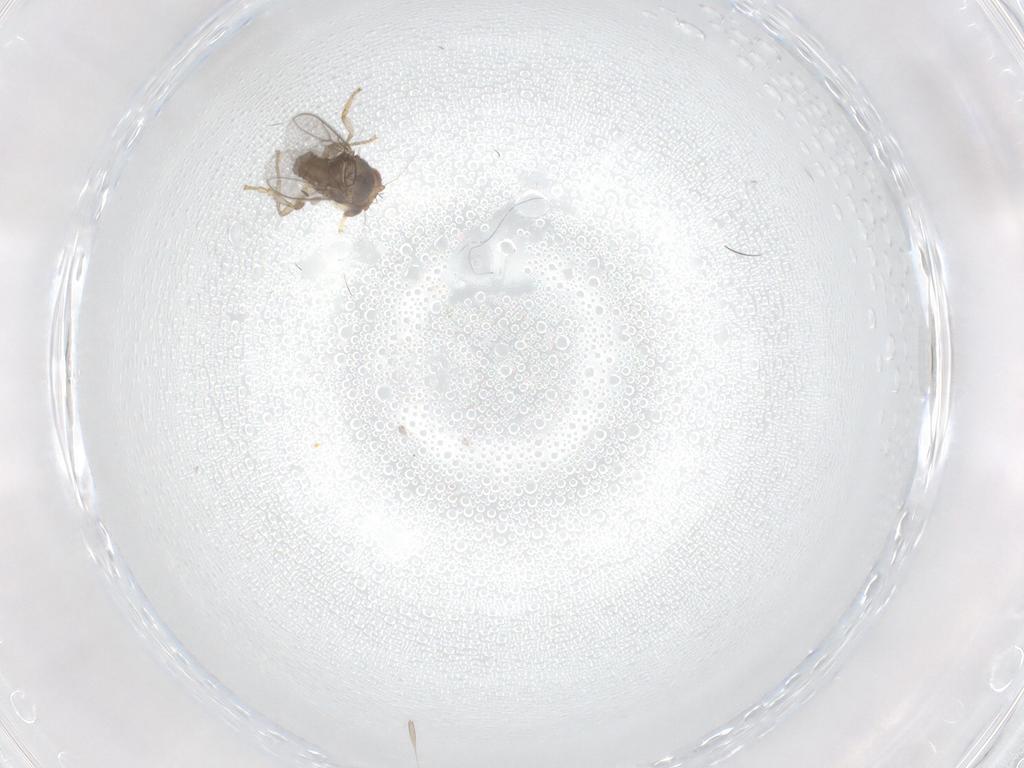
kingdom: Animalia
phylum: Arthropoda
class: Insecta
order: Diptera
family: Sphaeroceridae
